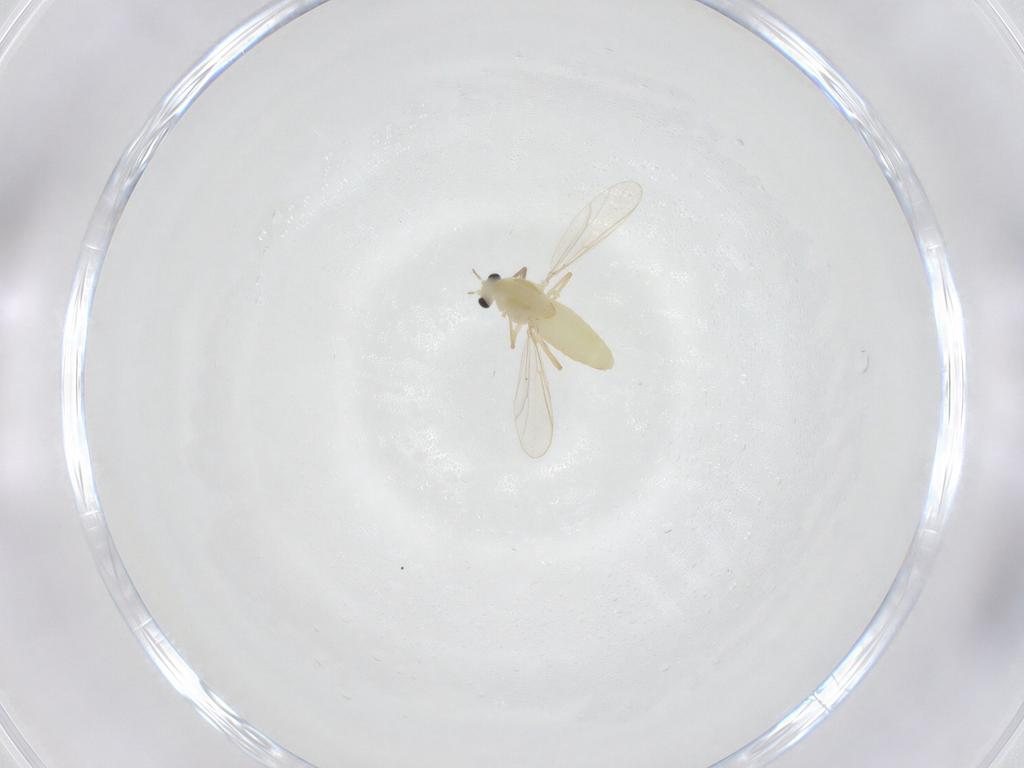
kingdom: Animalia
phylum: Arthropoda
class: Insecta
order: Diptera
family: Chironomidae
